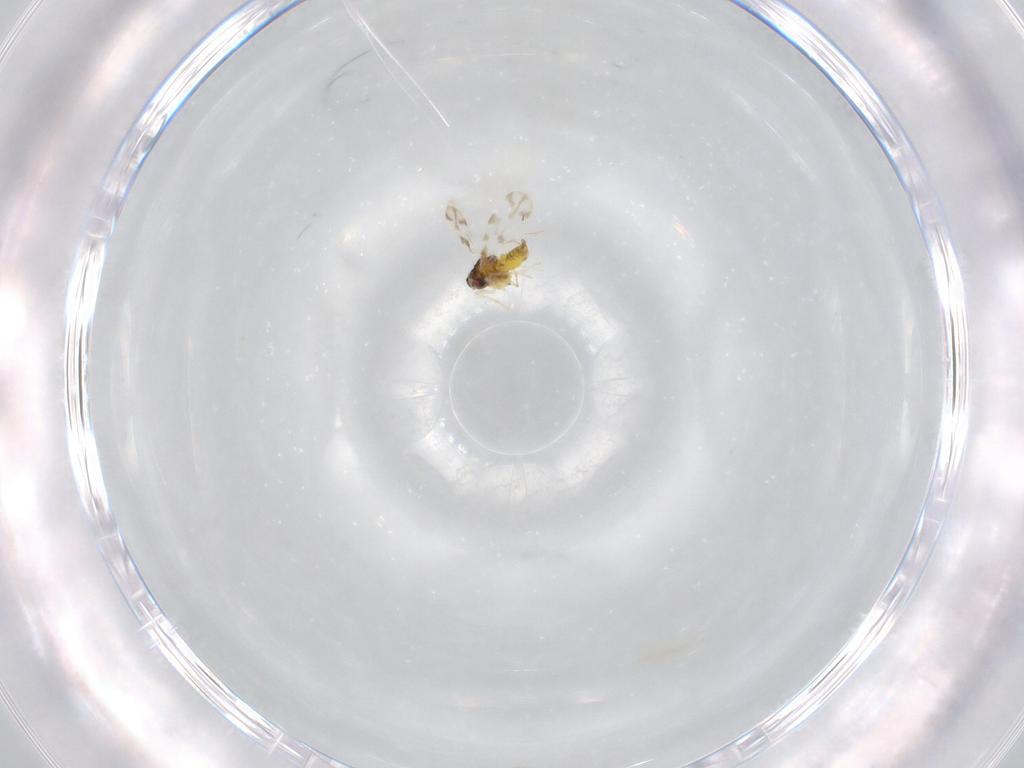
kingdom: Animalia
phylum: Arthropoda
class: Insecta
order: Hemiptera
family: Aleyrodidae
